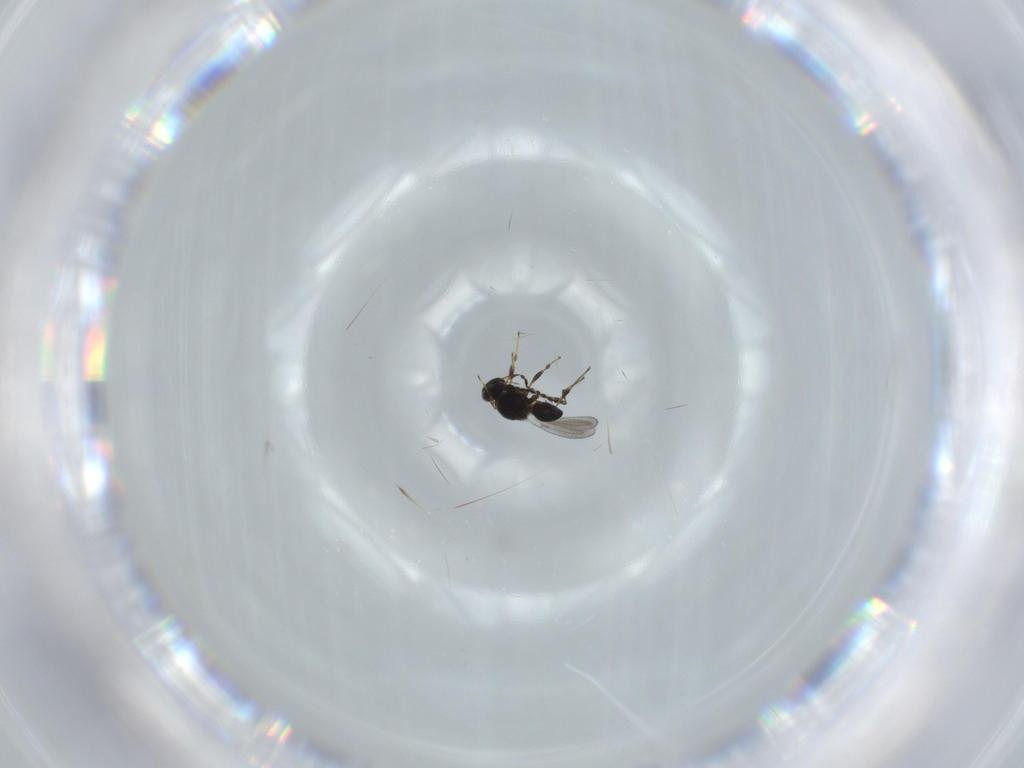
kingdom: Animalia
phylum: Arthropoda
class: Insecta
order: Hymenoptera
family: Platygastridae
